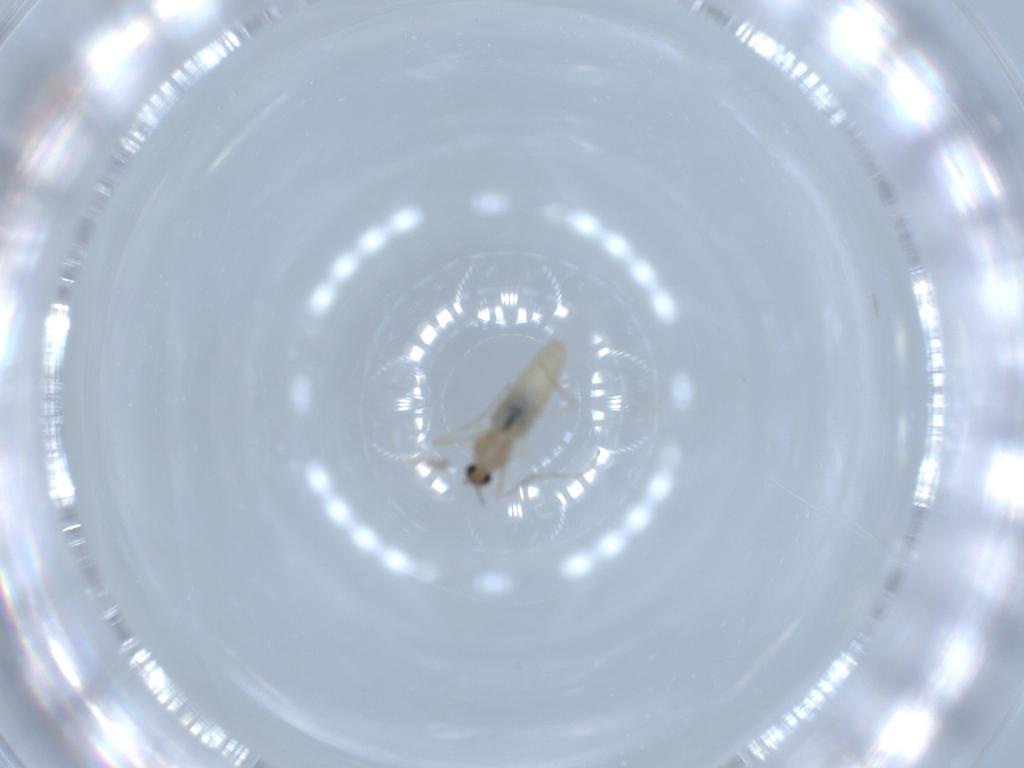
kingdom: Animalia
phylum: Arthropoda
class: Insecta
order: Diptera
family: Cecidomyiidae
